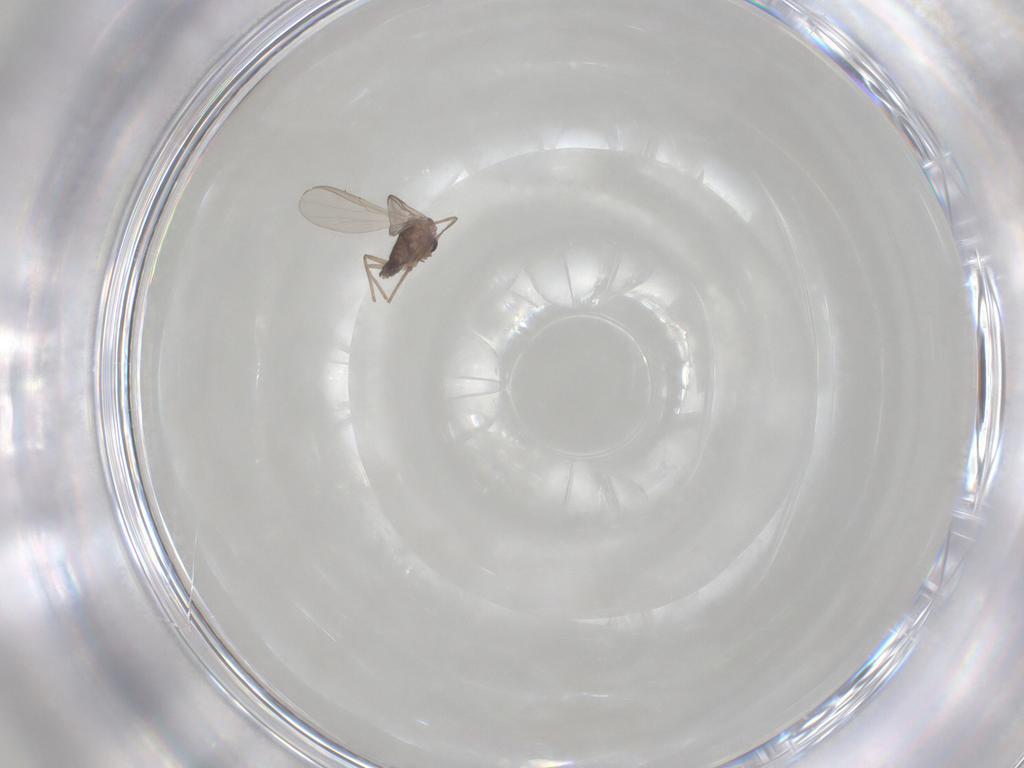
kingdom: Animalia
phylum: Arthropoda
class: Insecta
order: Diptera
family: Chironomidae
